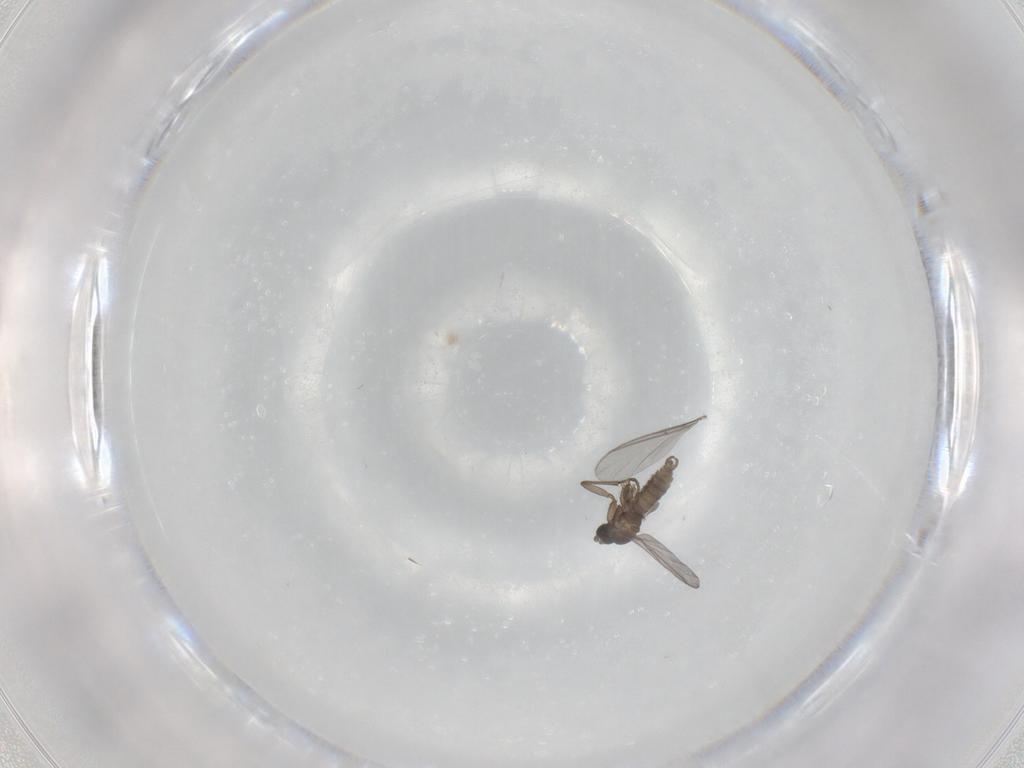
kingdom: Animalia
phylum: Arthropoda
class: Insecta
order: Diptera
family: Sciaridae
